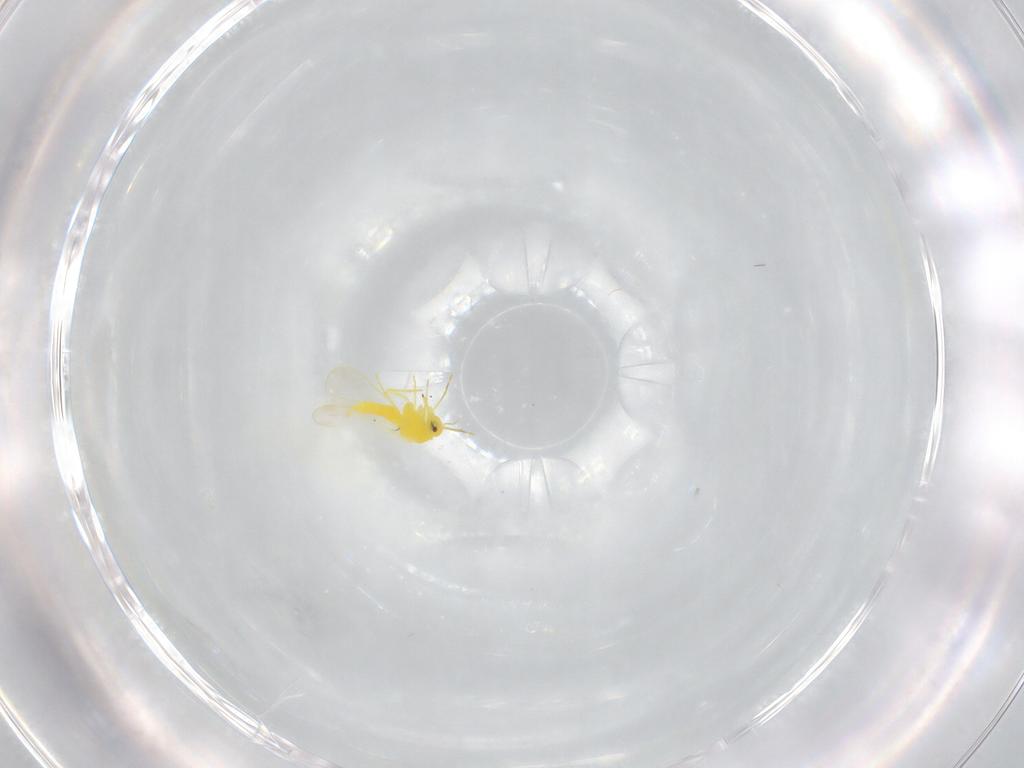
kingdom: Animalia
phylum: Arthropoda
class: Insecta
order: Hemiptera
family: Aleyrodidae
